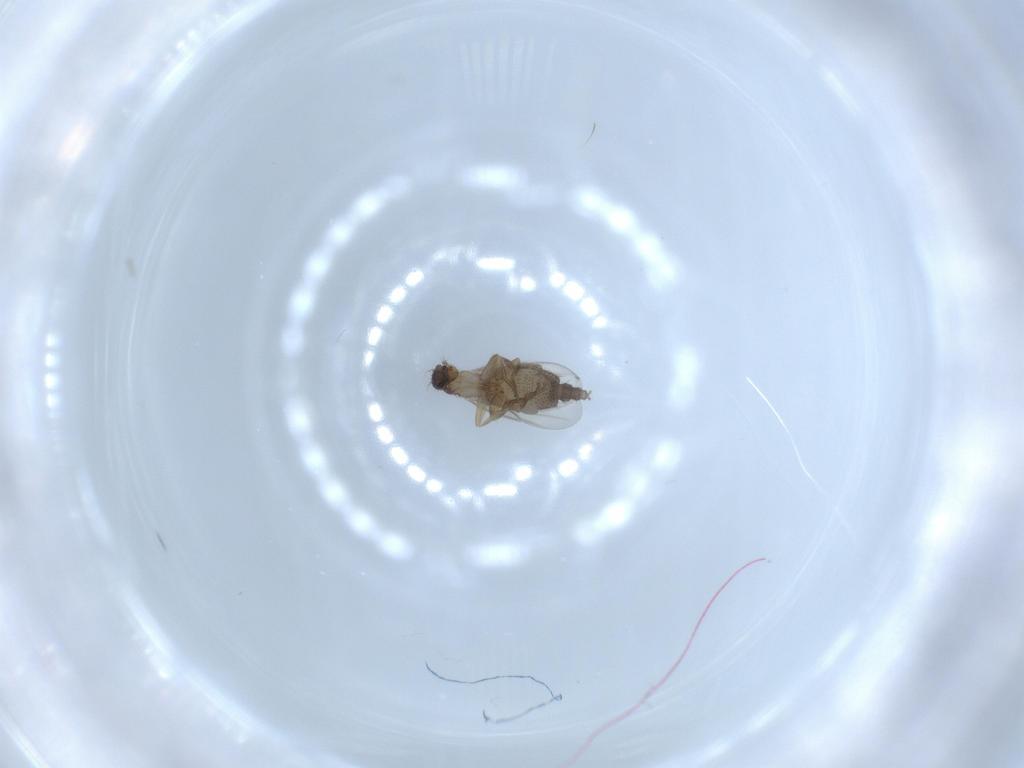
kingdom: Animalia
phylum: Arthropoda
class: Insecta
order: Diptera
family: Phoridae
